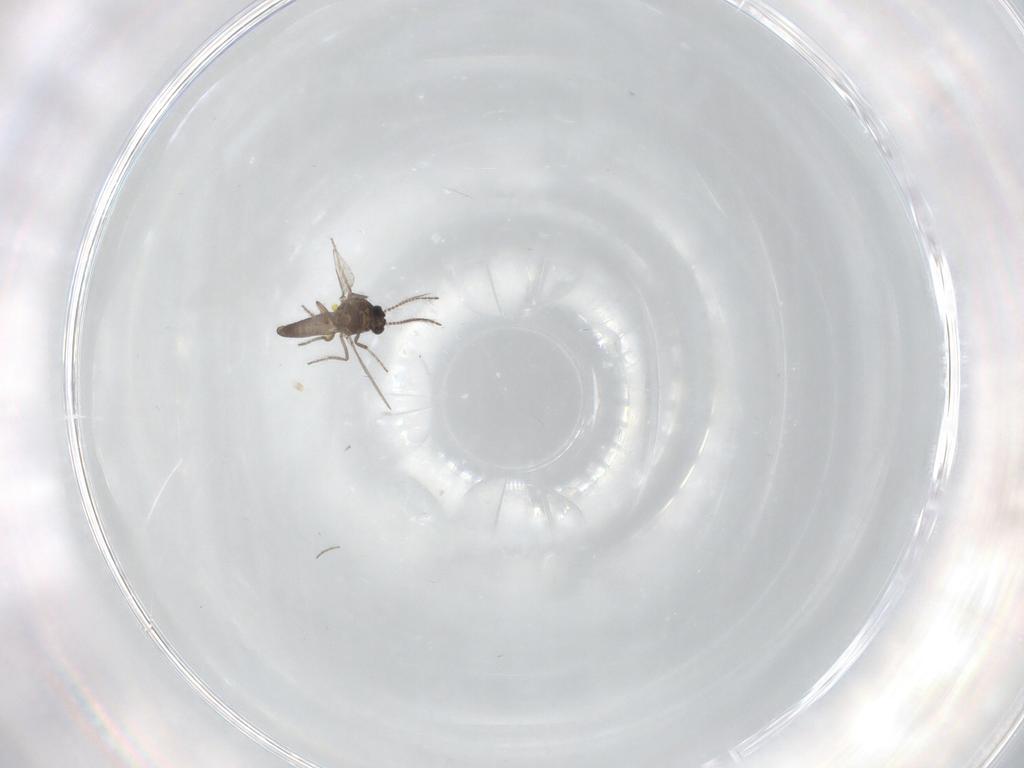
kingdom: Animalia
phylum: Arthropoda
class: Insecta
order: Diptera
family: Ceratopogonidae
